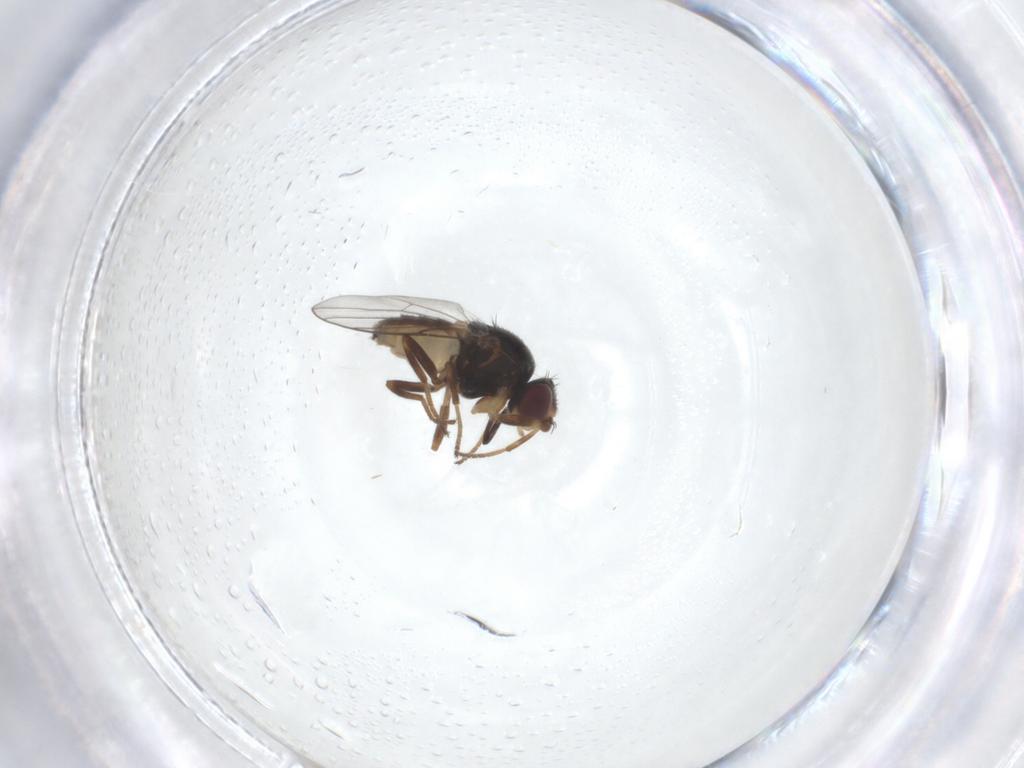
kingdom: Animalia
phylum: Arthropoda
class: Insecta
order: Diptera
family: Chloropidae
